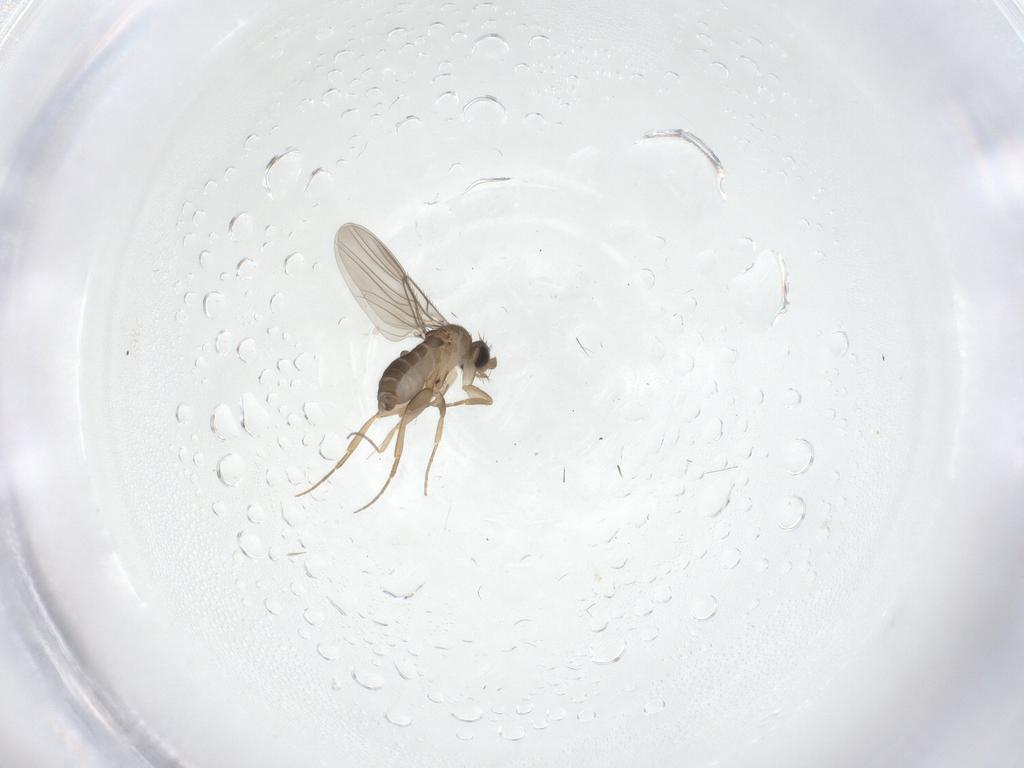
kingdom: Animalia
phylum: Arthropoda
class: Insecta
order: Diptera
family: Phoridae
